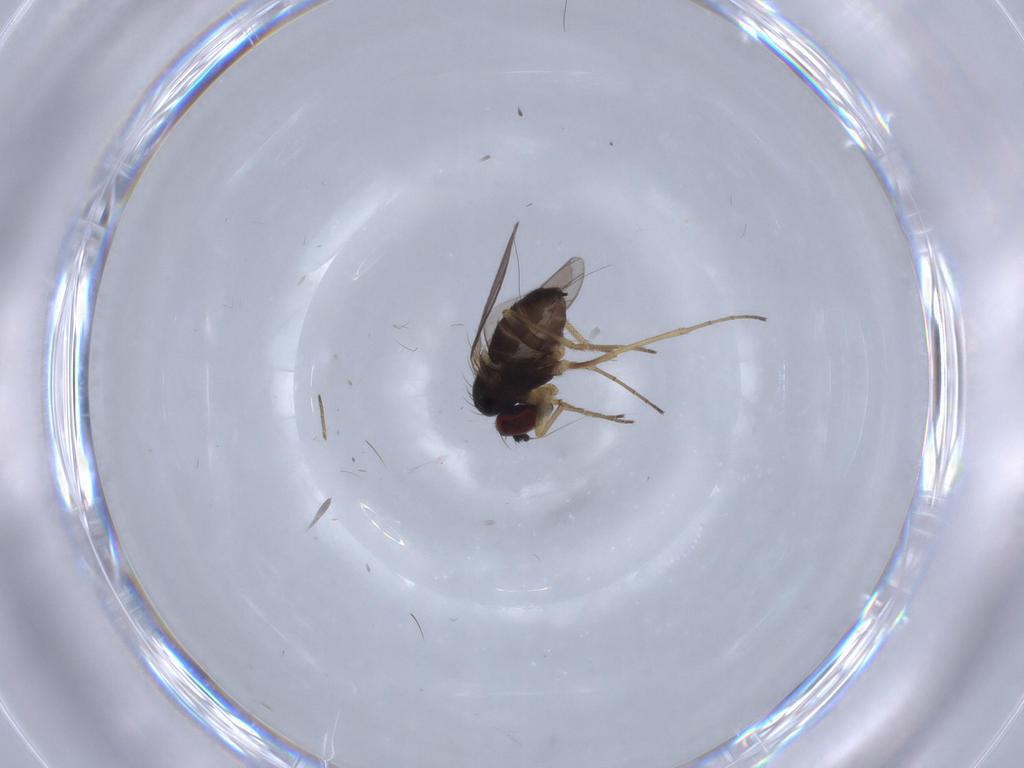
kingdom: Animalia
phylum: Arthropoda
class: Insecta
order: Diptera
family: Dolichopodidae
